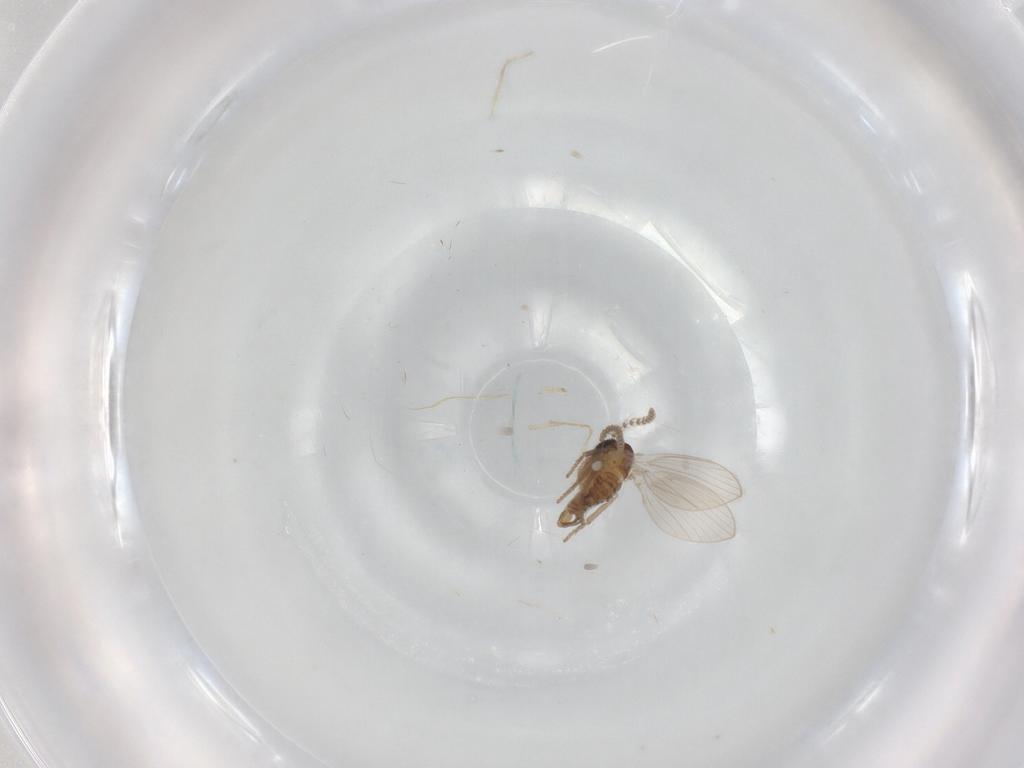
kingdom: Animalia
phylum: Arthropoda
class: Insecta
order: Diptera
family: Psychodidae
